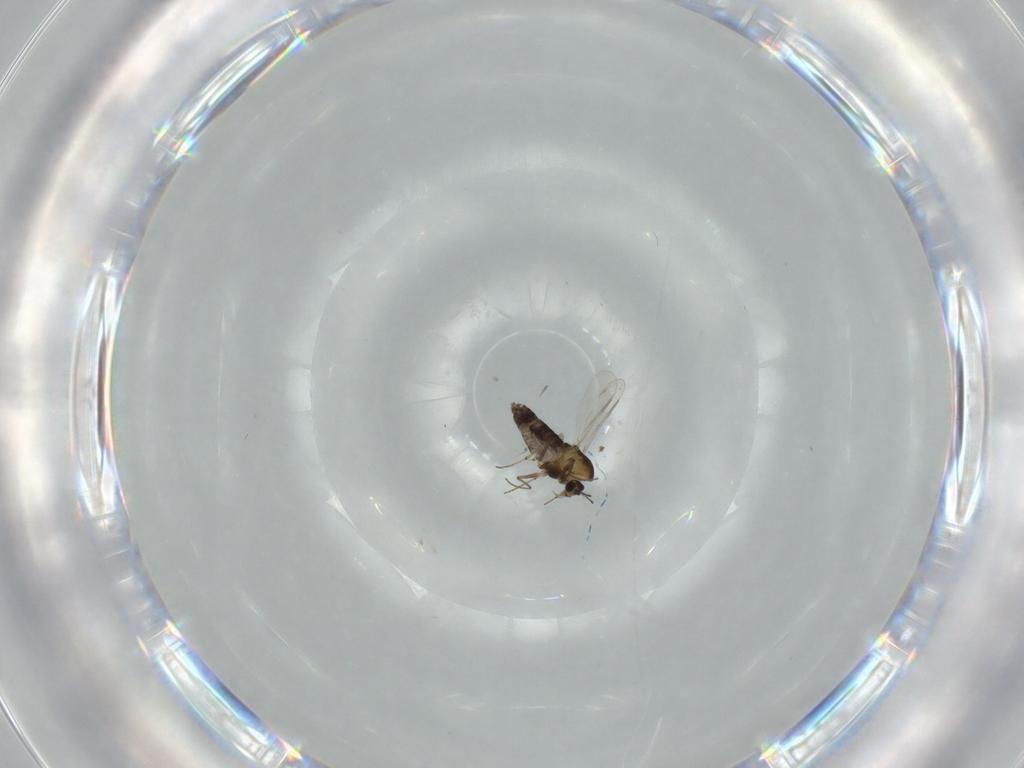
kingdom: Animalia
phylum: Arthropoda
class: Insecta
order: Diptera
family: Chironomidae
